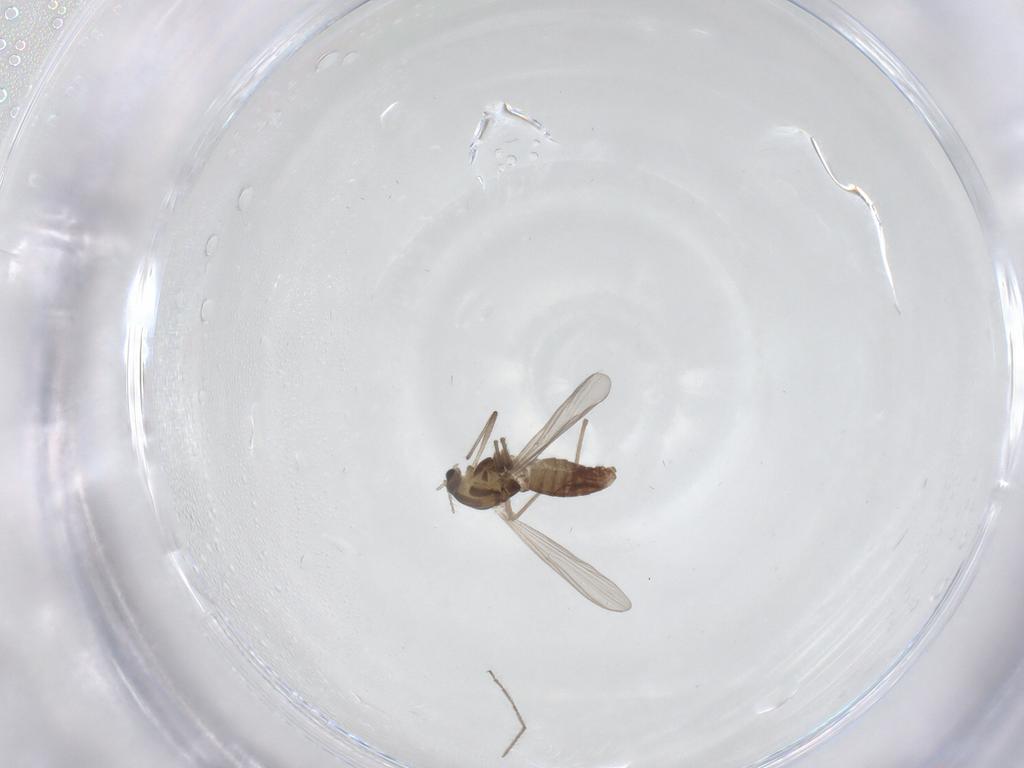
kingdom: Animalia
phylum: Arthropoda
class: Insecta
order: Diptera
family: Chironomidae
